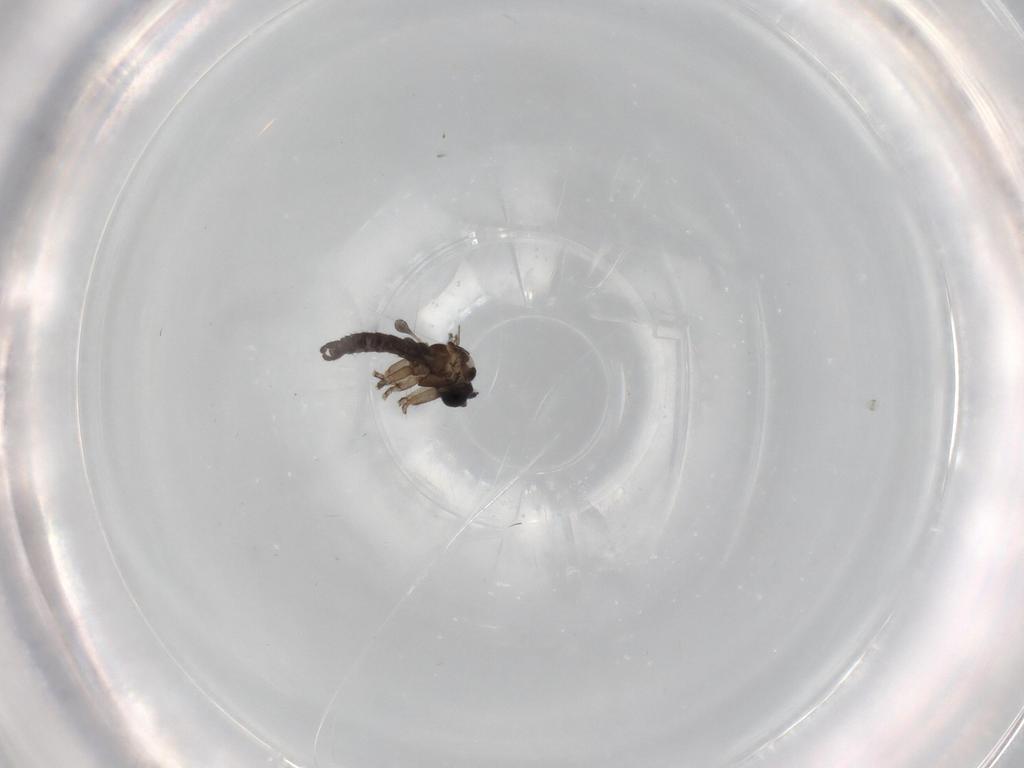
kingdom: Animalia
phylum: Arthropoda
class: Insecta
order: Diptera
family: Sciaridae
